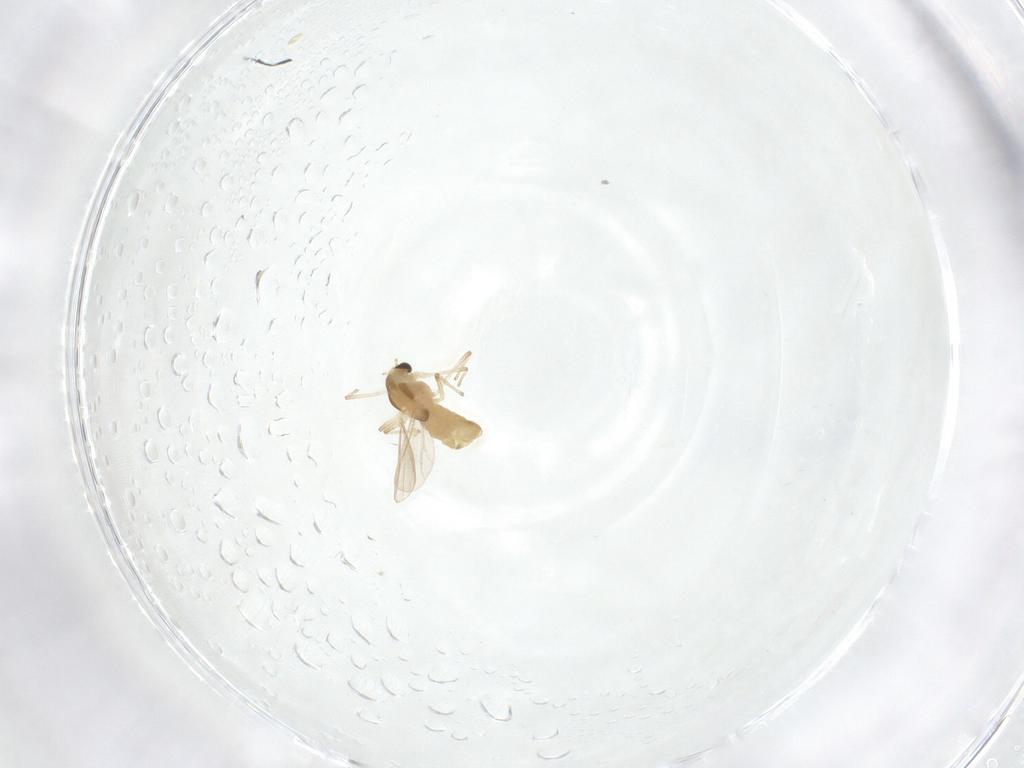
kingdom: Animalia
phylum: Arthropoda
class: Insecta
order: Diptera
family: Chironomidae
